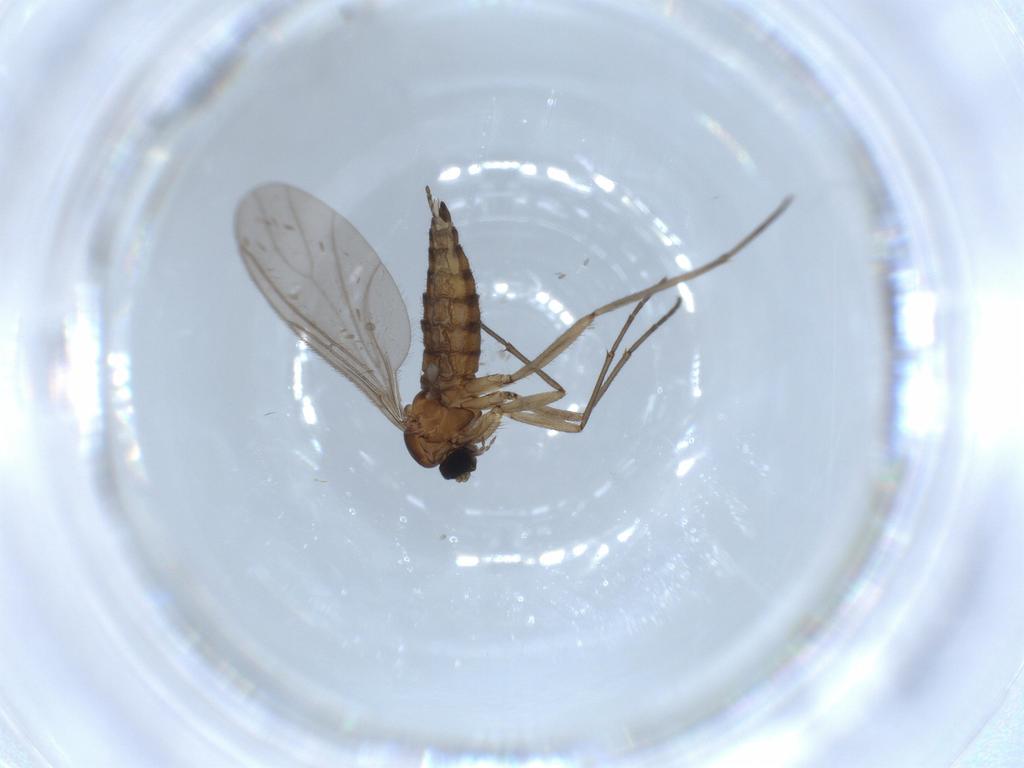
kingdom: Animalia
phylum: Arthropoda
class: Insecta
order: Diptera
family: Sciaridae
